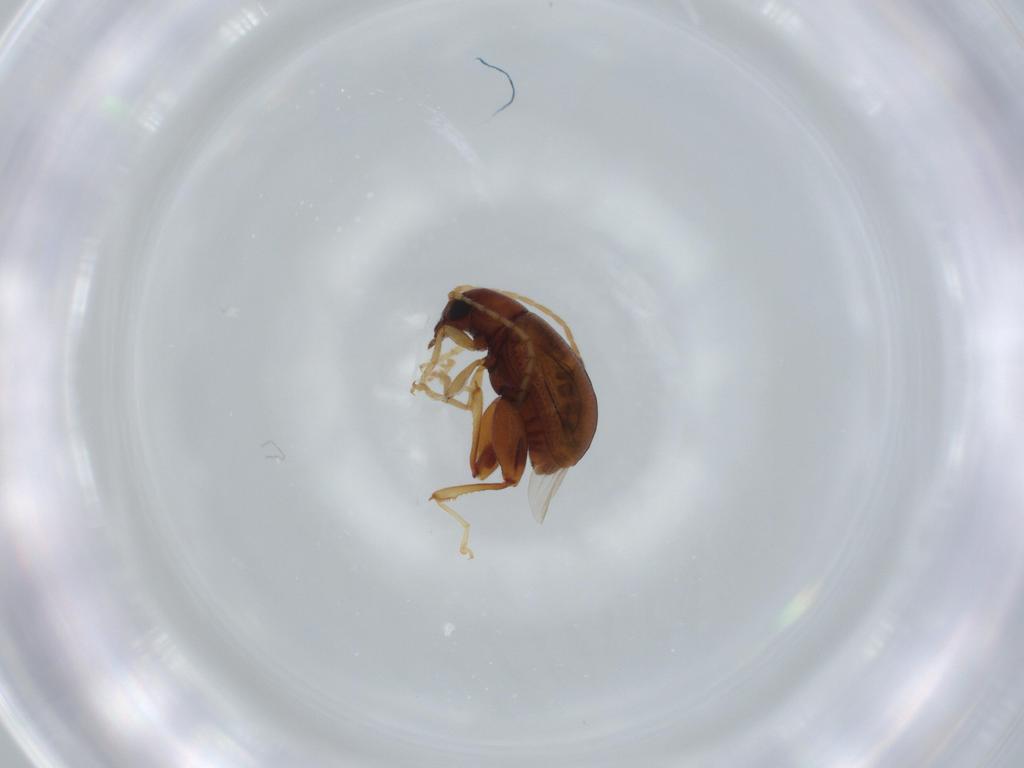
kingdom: Animalia
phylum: Arthropoda
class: Insecta
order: Coleoptera
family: Chrysomelidae
